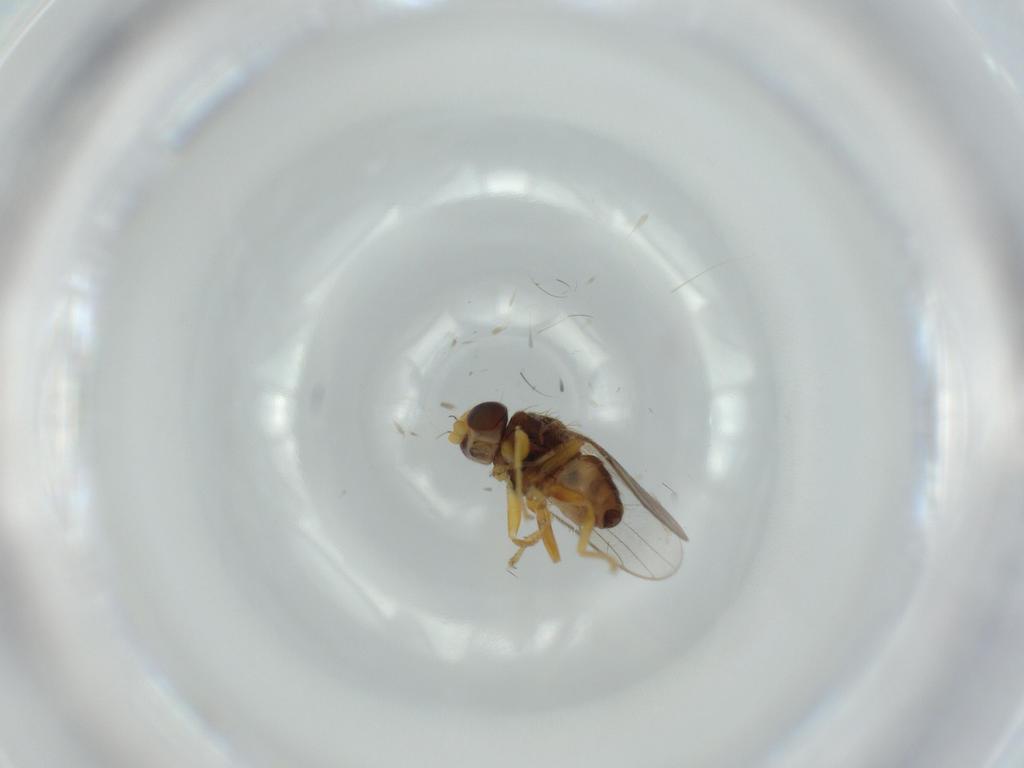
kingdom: Animalia
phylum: Arthropoda
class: Insecta
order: Diptera
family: Chloropidae
